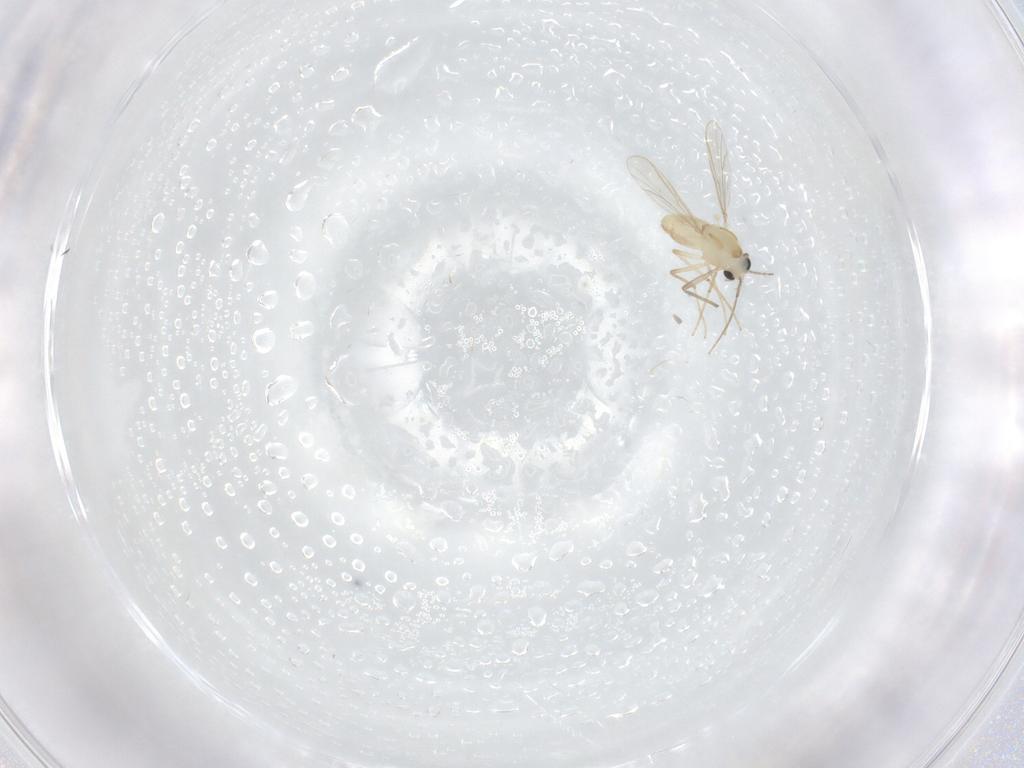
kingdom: Animalia
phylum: Arthropoda
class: Insecta
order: Diptera
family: Chironomidae
